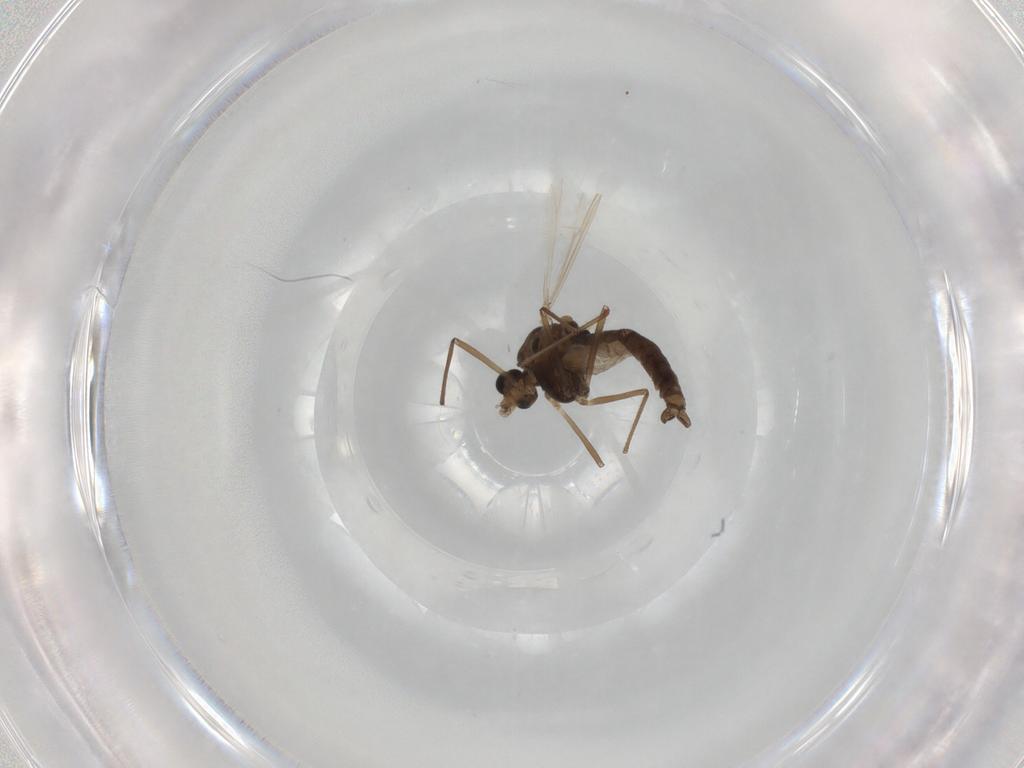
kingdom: Animalia
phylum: Arthropoda
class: Insecta
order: Diptera
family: Chironomidae
